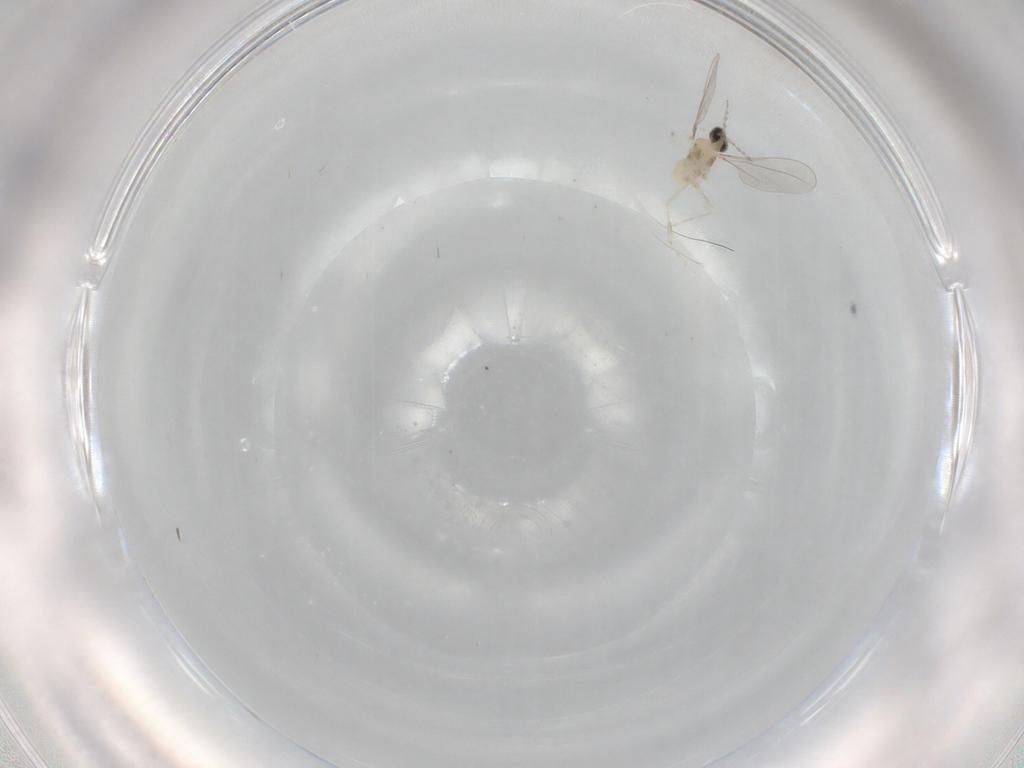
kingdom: Animalia
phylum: Arthropoda
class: Insecta
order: Diptera
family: Cecidomyiidae
